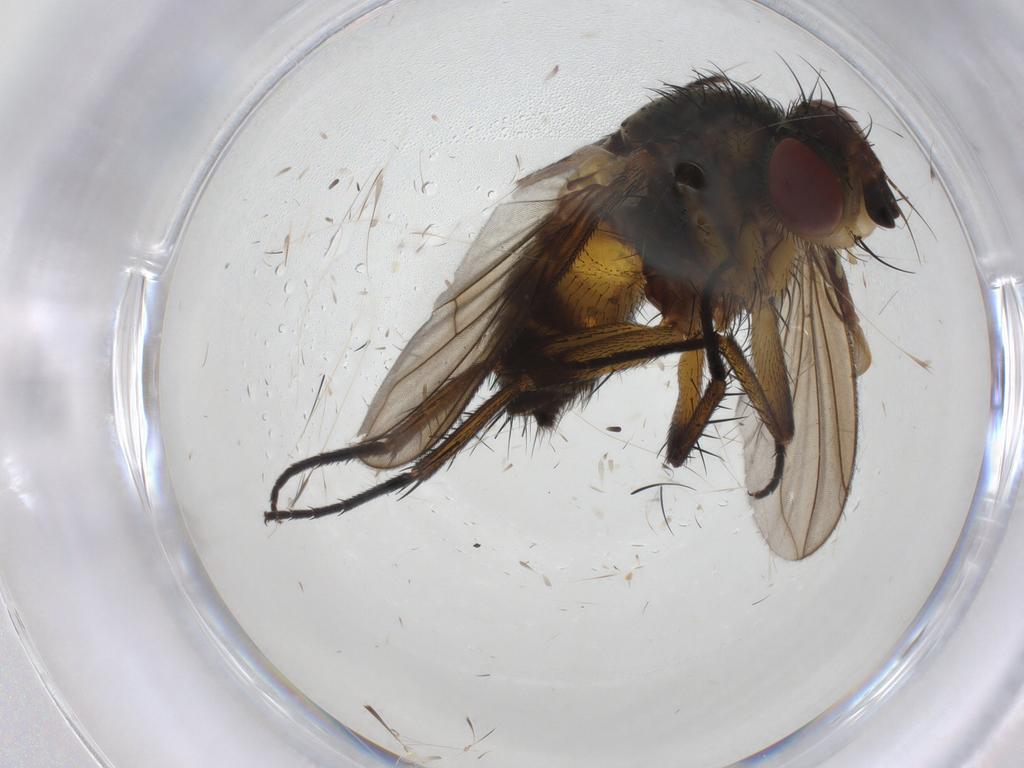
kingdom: Animalia
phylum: Arthropoda
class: Insecta
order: Diptera
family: Tachinidae
